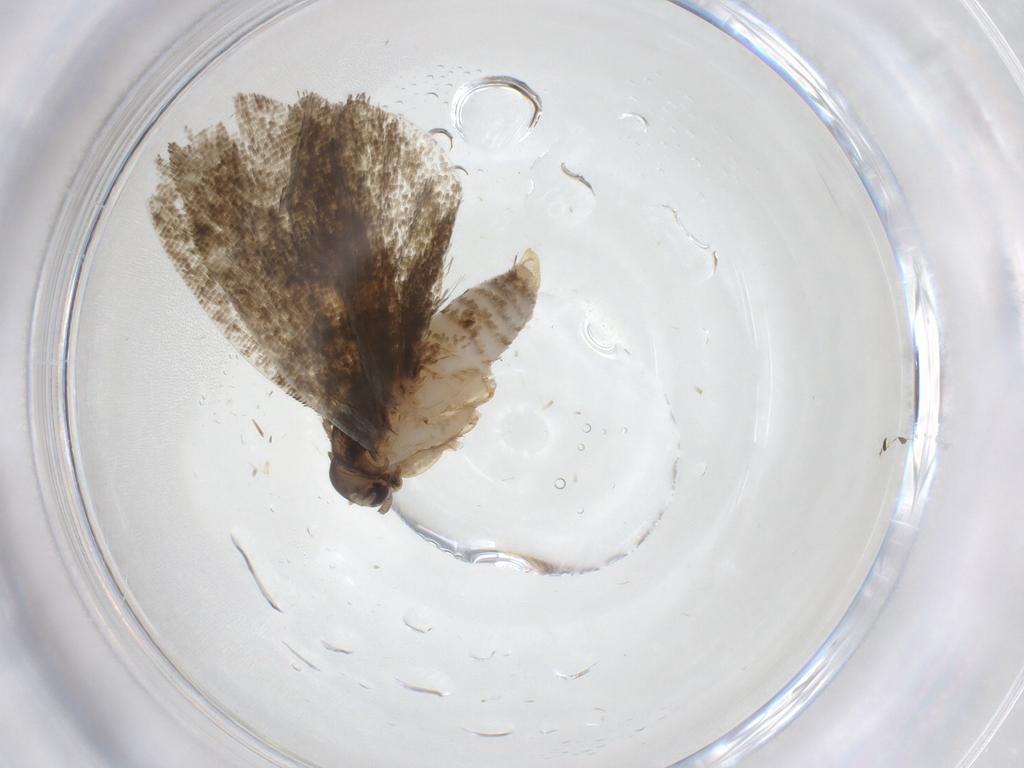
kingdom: Animalia
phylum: Arthropoda
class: Insecta
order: Lepidoptera
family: Tortricidae
